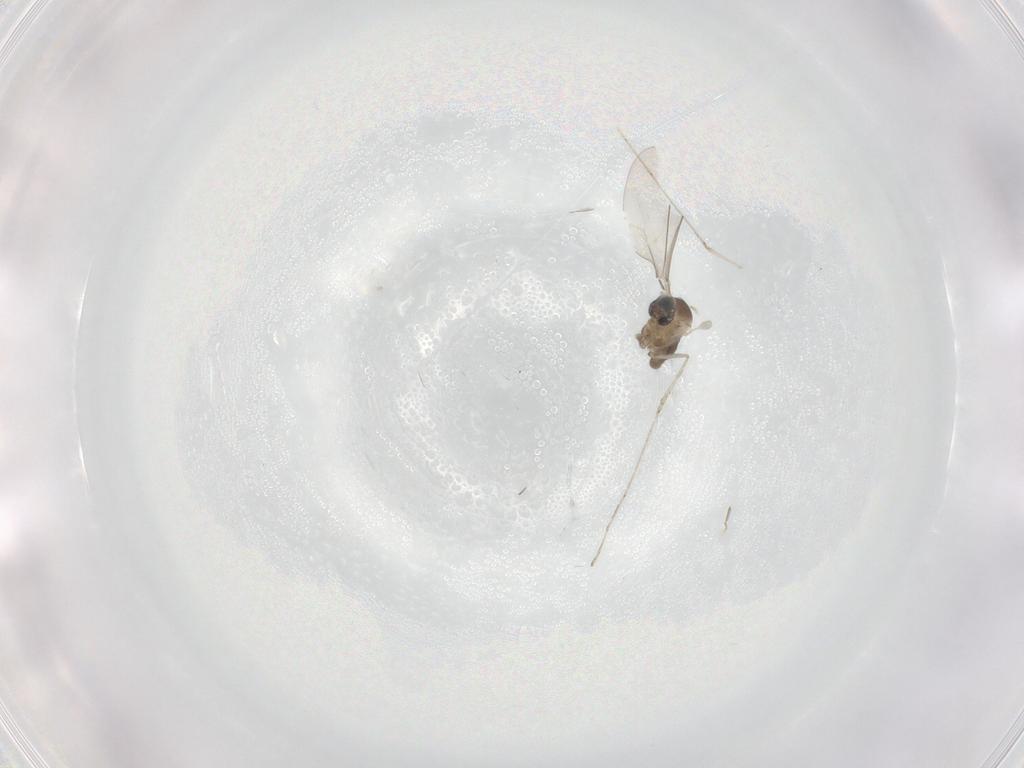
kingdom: Animalia
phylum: Arthropoda
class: Insecta
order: Diptera
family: Cecidomyiidae
